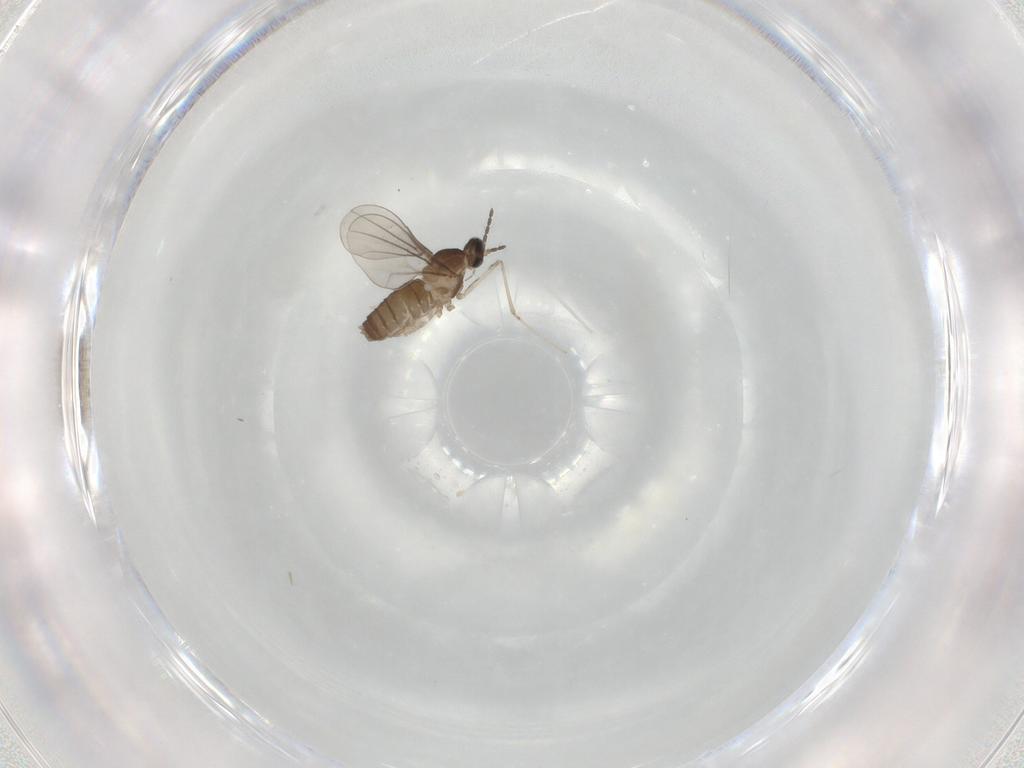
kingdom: Animalia
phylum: Arthropoda
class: Insecta
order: Diptera
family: Cecidomyiidae
